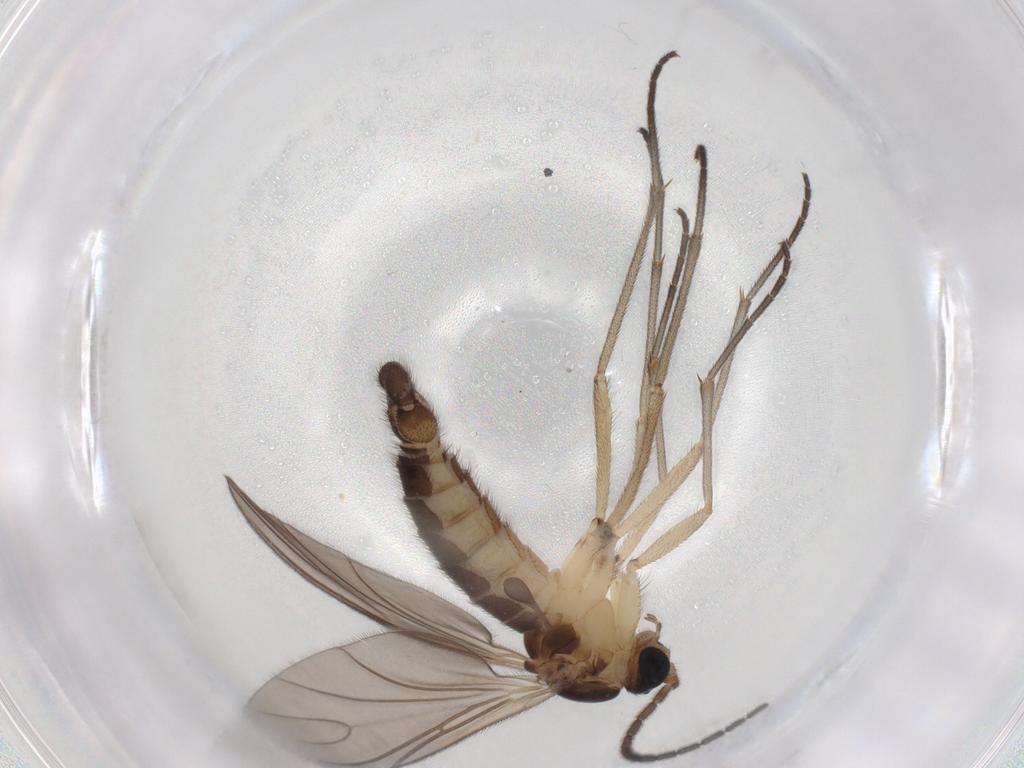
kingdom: Animalia
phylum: Arthropoda
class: Insecta
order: Diptera
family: Sciaridae
